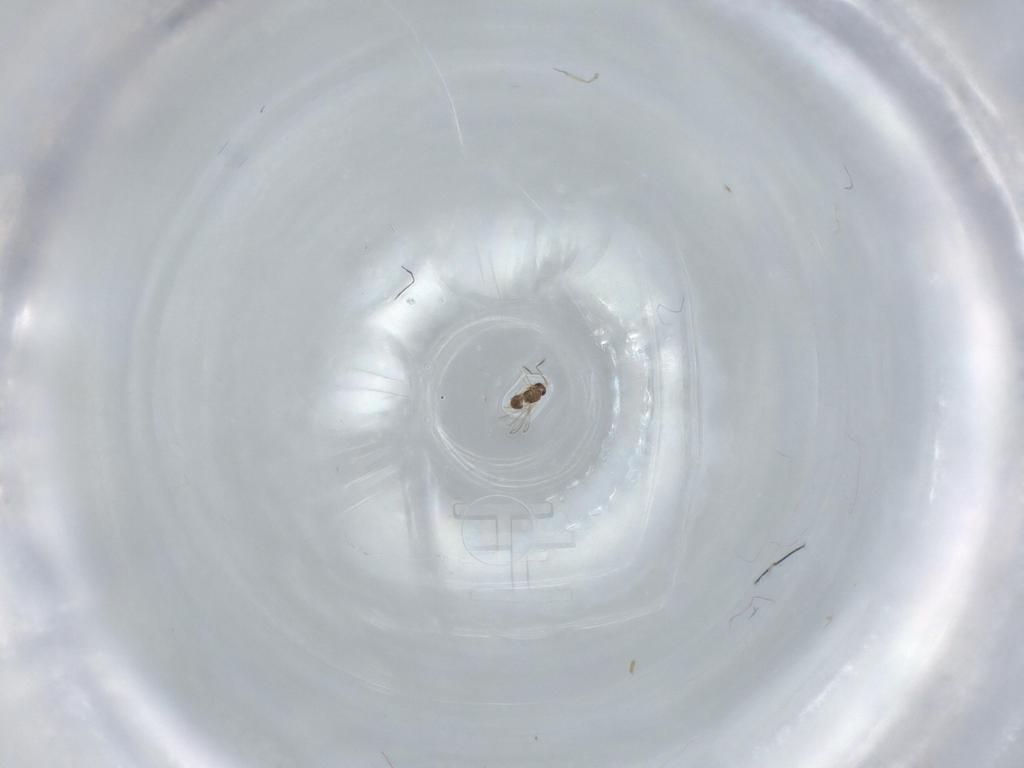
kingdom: Animalia
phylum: Arthropoda
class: Insecta
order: Hymenoptera
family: Mymaridae
